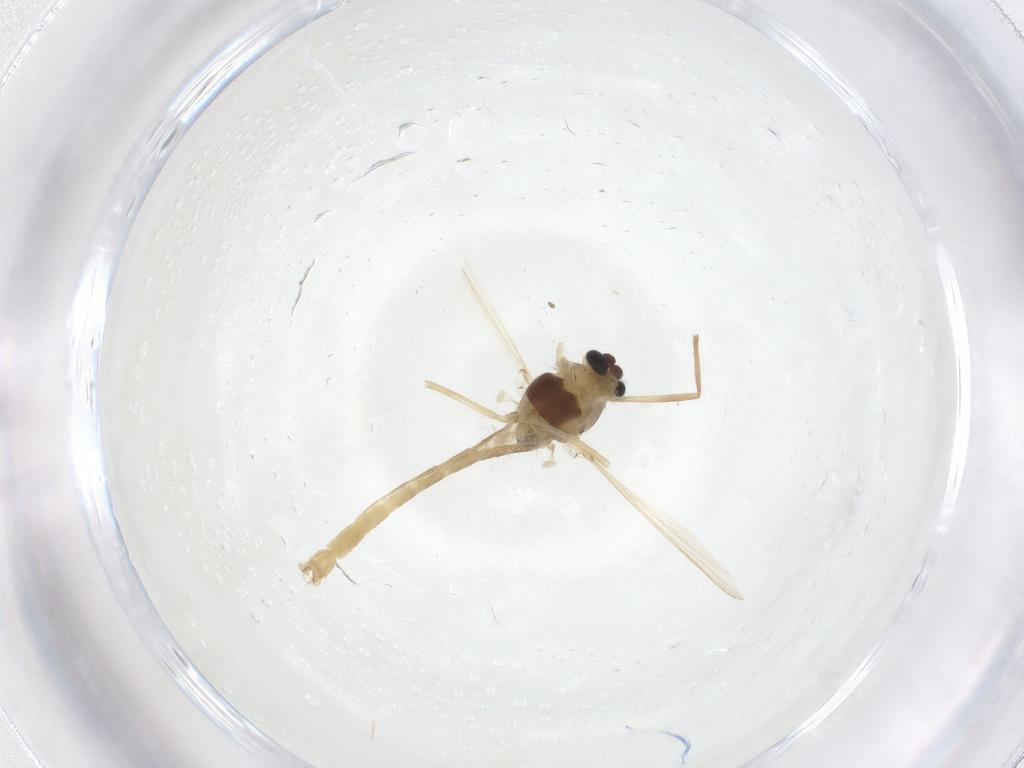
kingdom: Animalia
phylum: Arthropoda
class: Insecta
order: Diptera
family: Chironomidae
